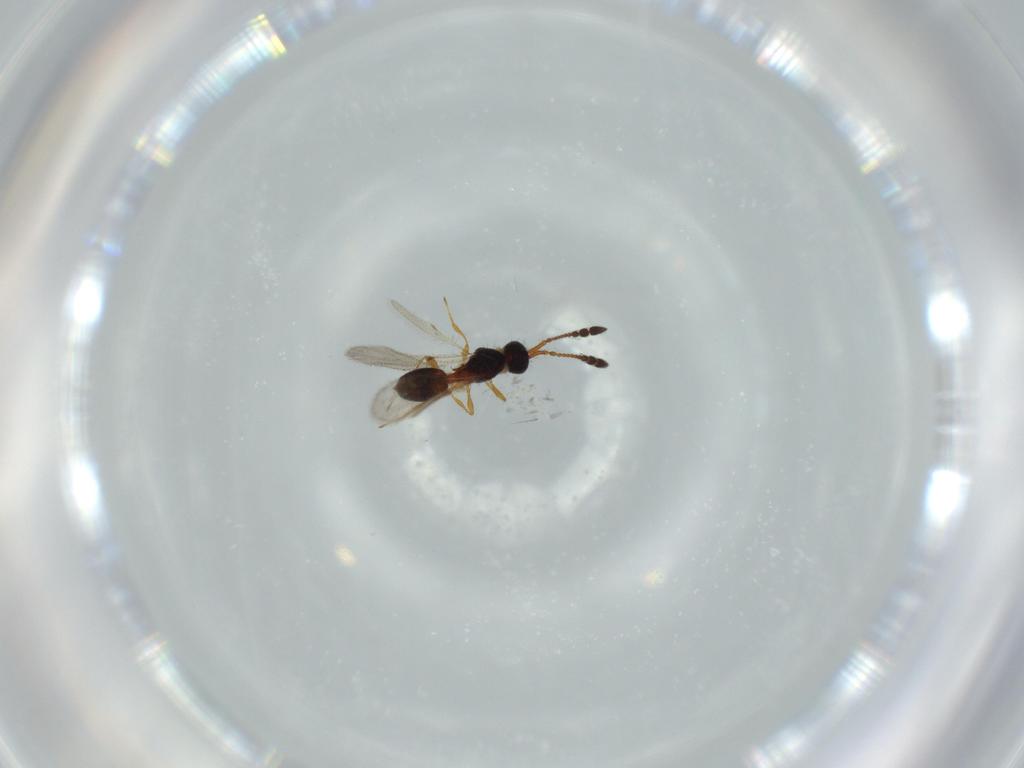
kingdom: Animalia
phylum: Arthropoda
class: Insecta
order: Hymenoptera
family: Diapriidae
